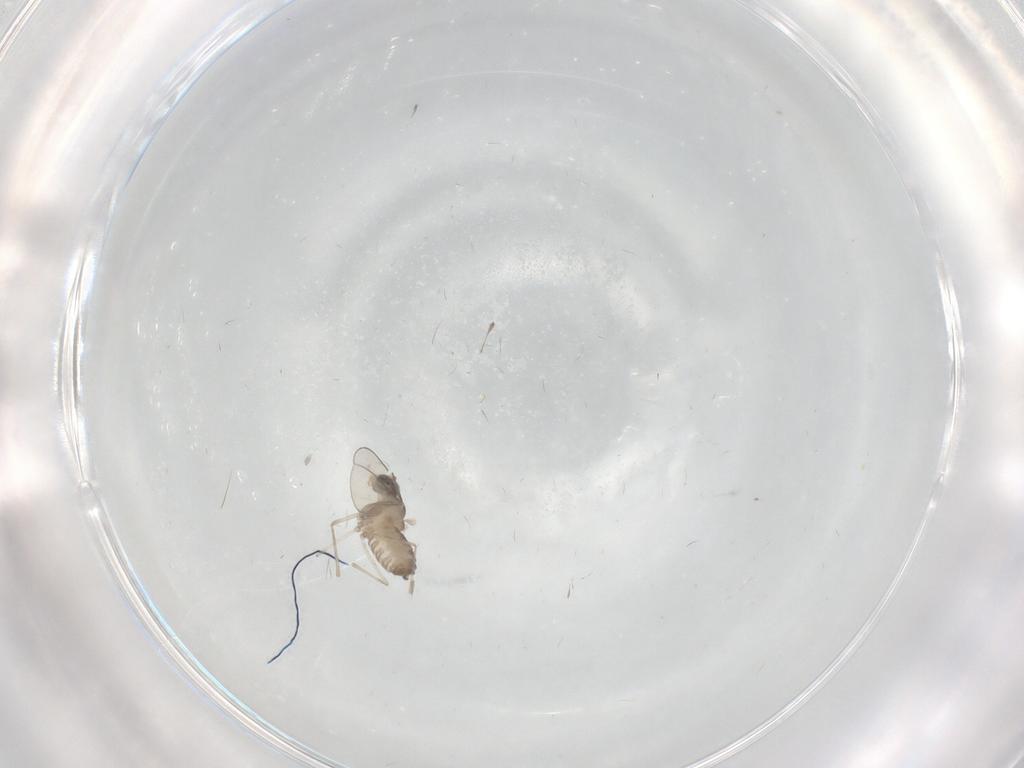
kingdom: Animalia
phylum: Arthropoda
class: Insecta
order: Diptera
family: Cecidomyiidae
